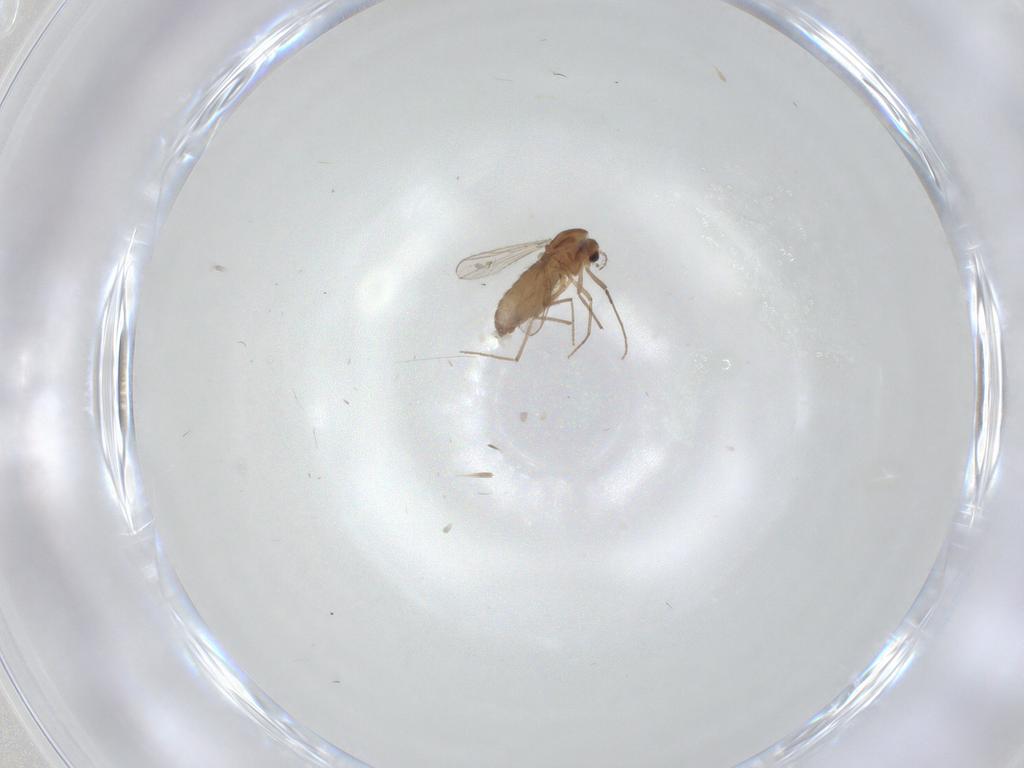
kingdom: Animalia
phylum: Arthropoda
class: Insecta
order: Diptera
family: Chironomidae
